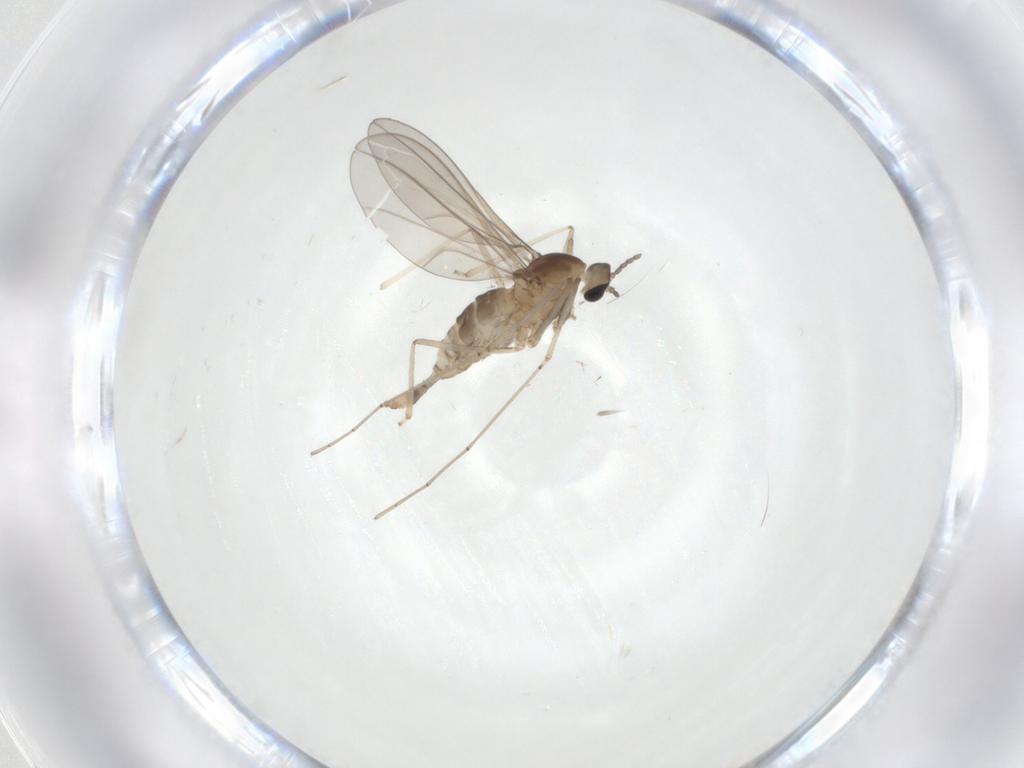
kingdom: Animalia
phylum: Arthropoda
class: Insecta
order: Diptera
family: Cecidomyiidae
